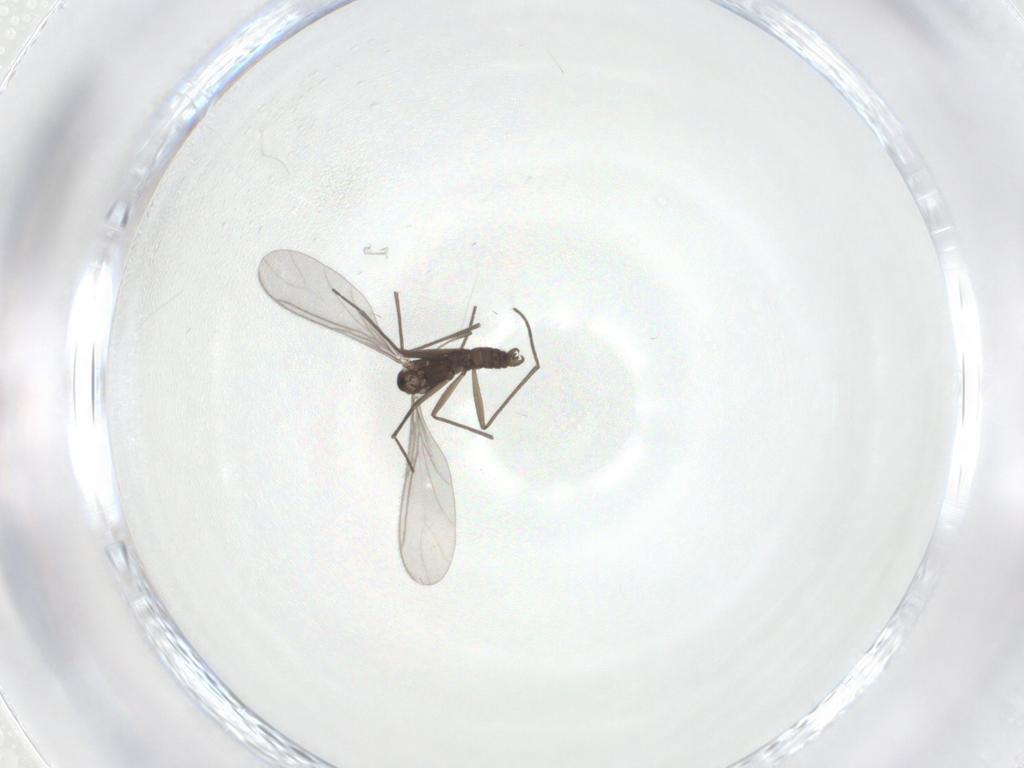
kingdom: Animalia
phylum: Arthropoda
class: Insecta
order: Diptera
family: Sciaridae
